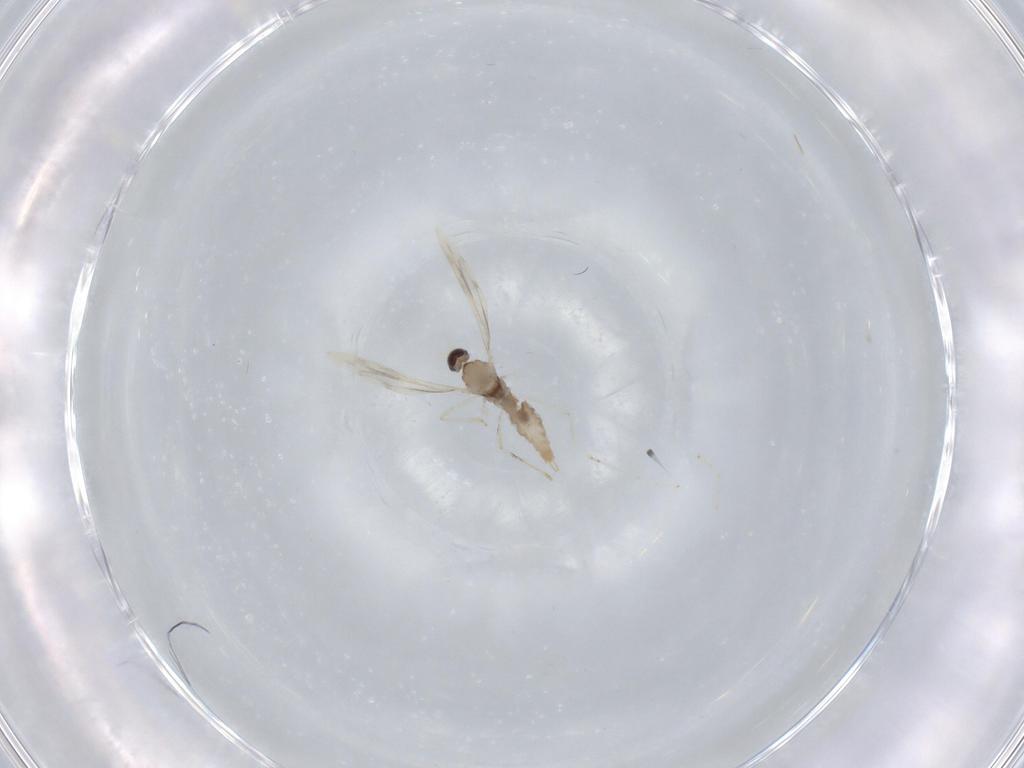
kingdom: Animalia
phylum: Arthropoda
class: Insecta
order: Diptera
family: Cecidomyiidae
